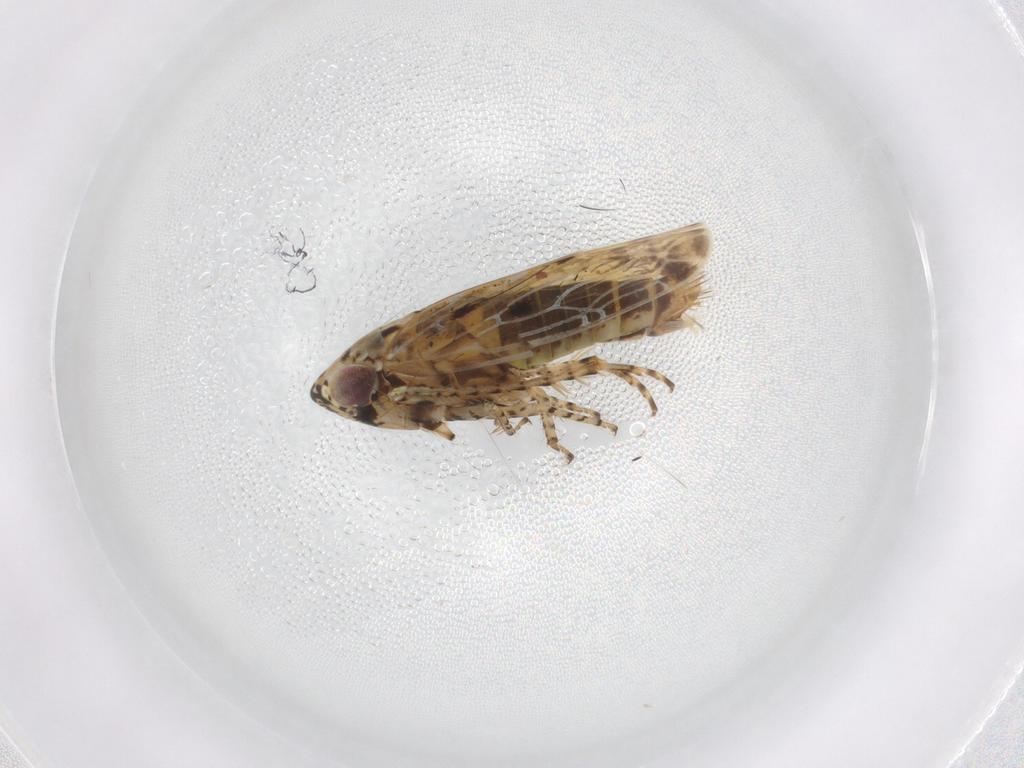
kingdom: Animalia
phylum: Arthropoda
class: Insecta
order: Hemiptera
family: Cicadellidae
